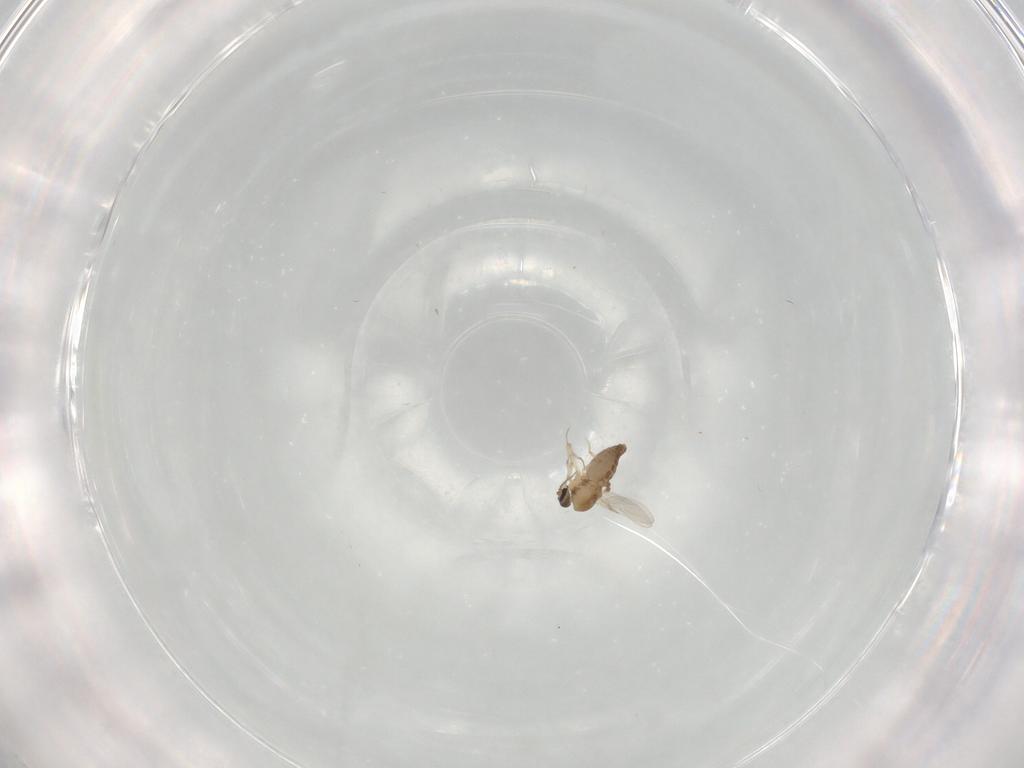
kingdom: Animalia
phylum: Arthropoda
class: Insecta
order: Diptera
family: Ceratopogonidae
